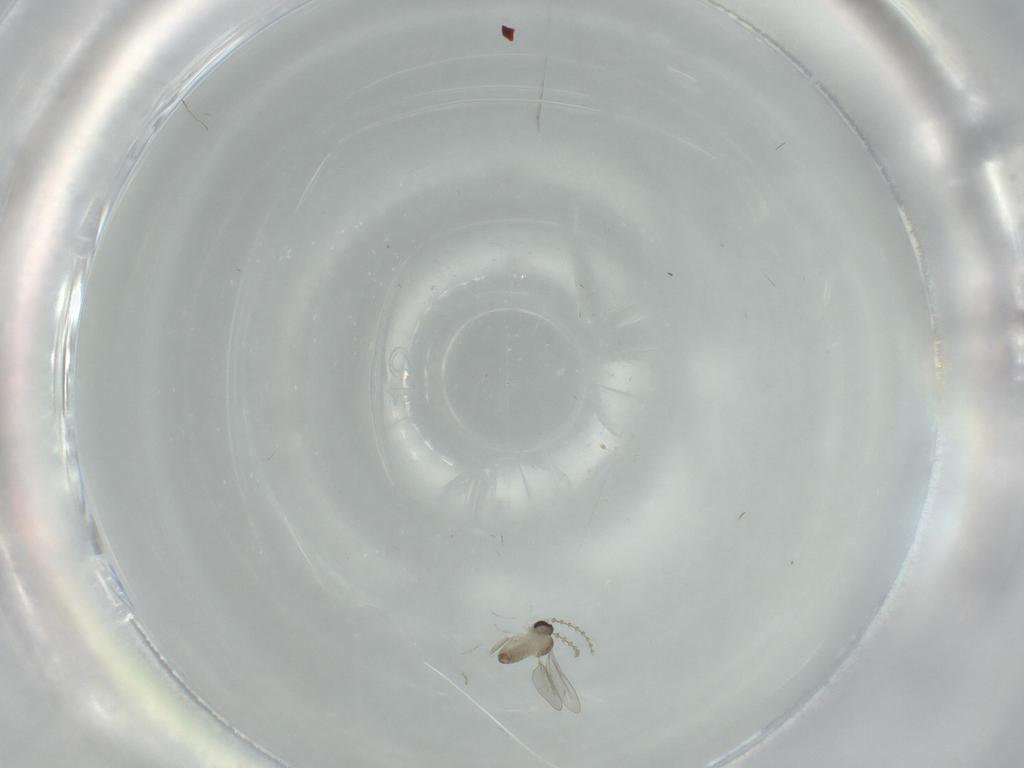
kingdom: Animalia
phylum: Arthropoda
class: Insecta
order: Diptera
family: Cecidomyiidae
